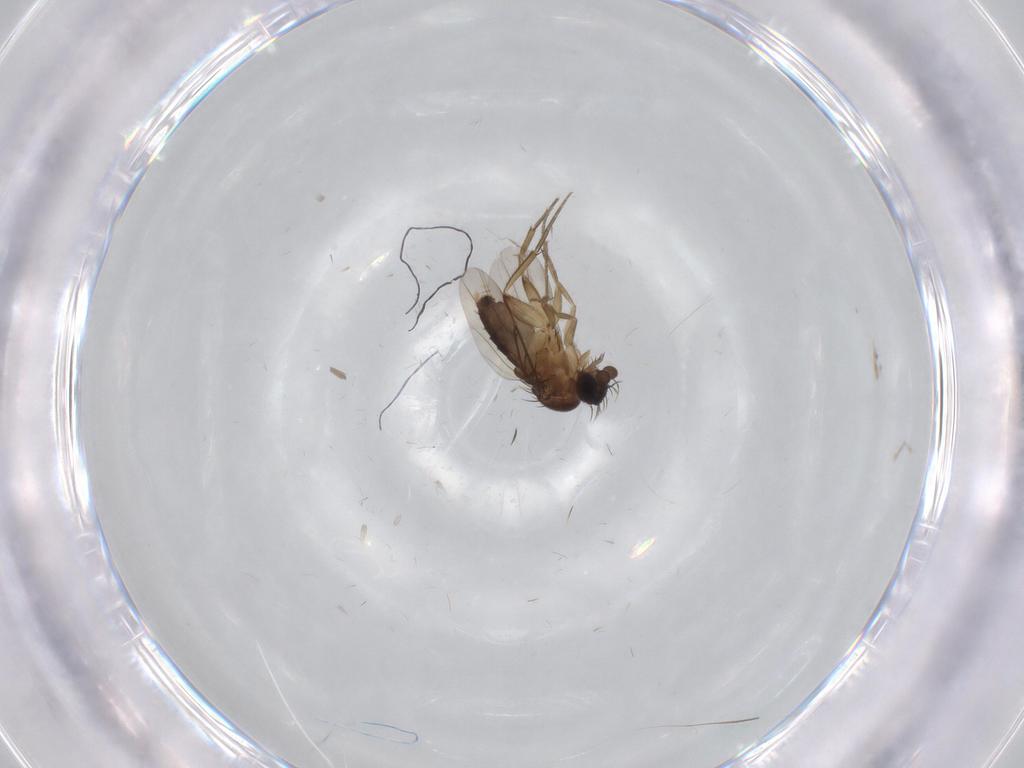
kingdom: Animalia
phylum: Arthropoda
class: Insecta
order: Diptera
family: Phoridae
